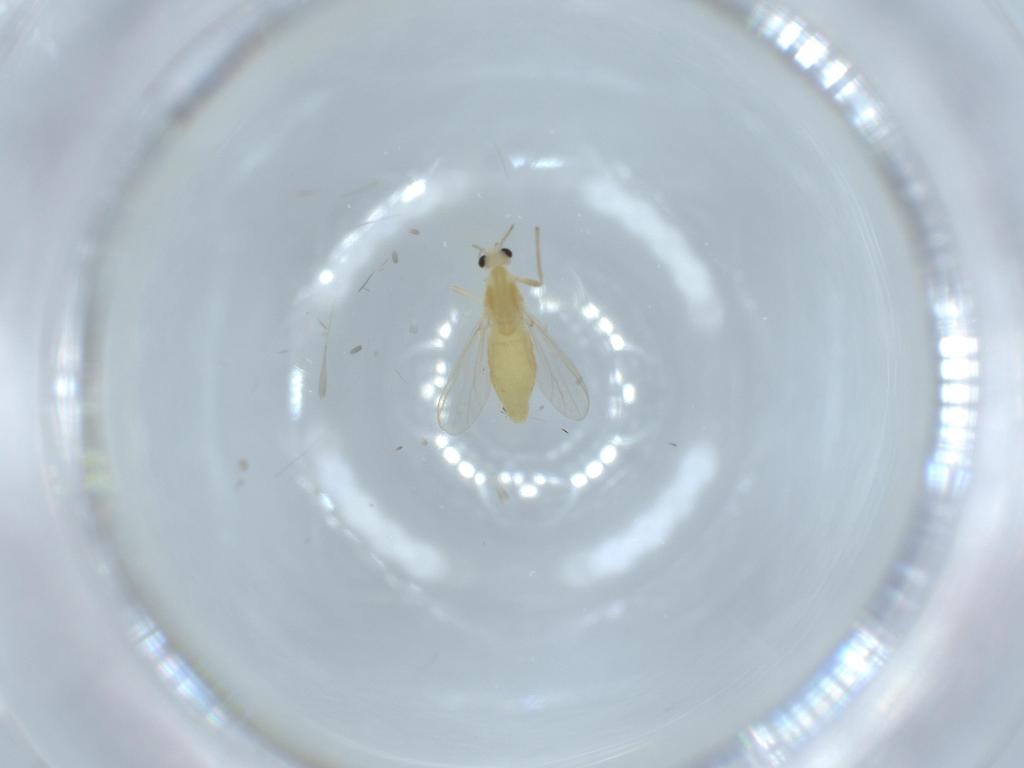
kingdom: Animalia
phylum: Arthropoda
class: Insecta
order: Diptera
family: Chironomidae
